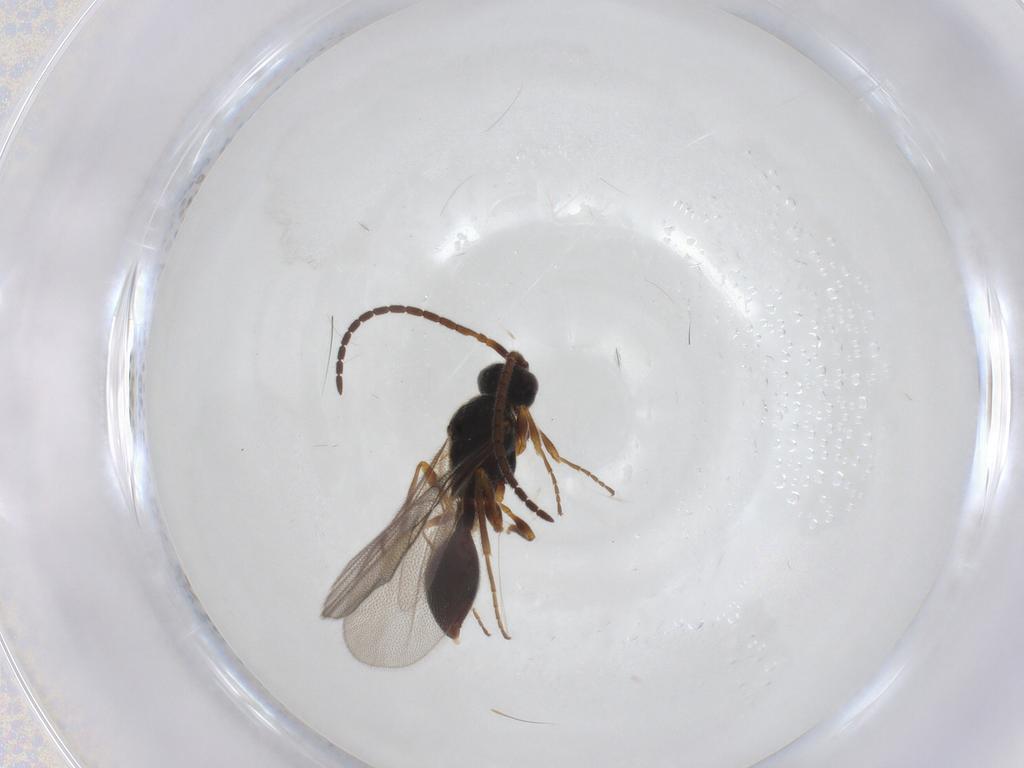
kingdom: Animalia
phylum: Arthropoda
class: Insecta
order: Hymenoptera
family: Diapriidae
